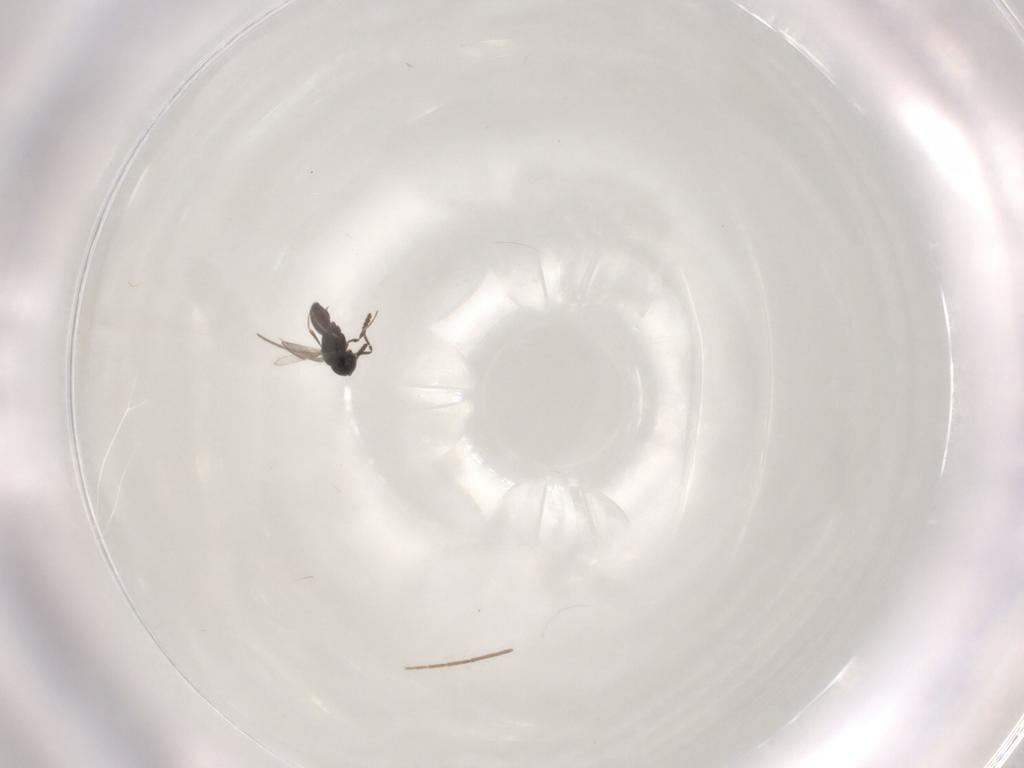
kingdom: Animalia
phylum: Arthropoda
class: Insecta
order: Hymenoptera
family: Scelionidae
